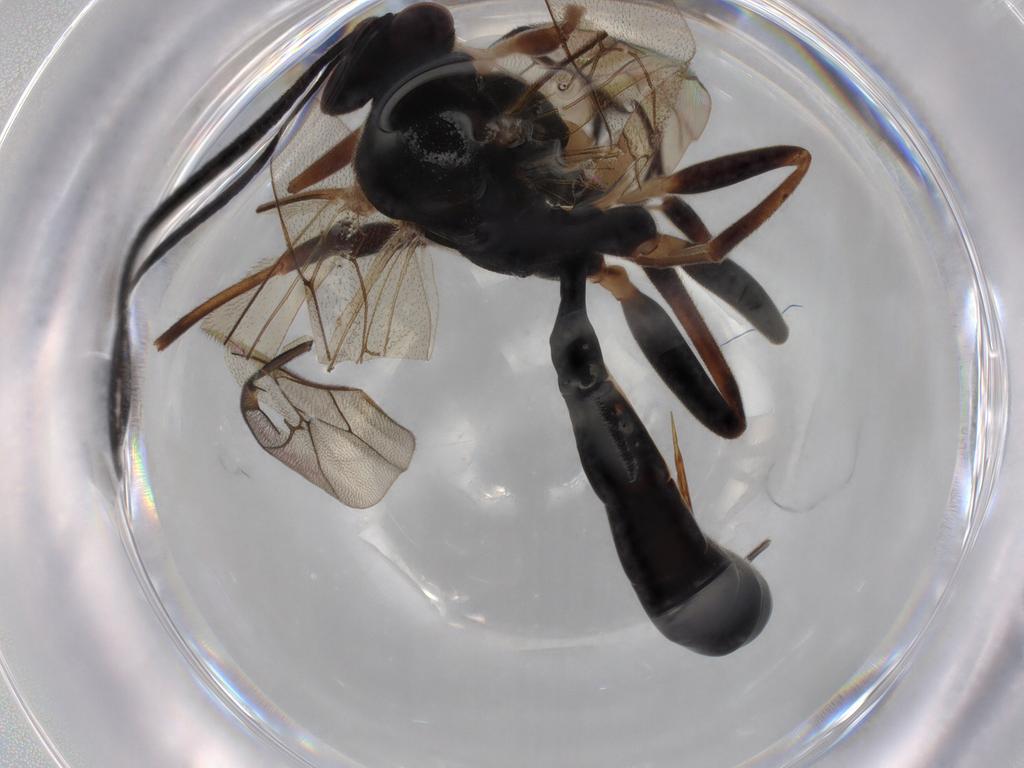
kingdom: Animalia
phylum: Arthropoda
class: Insecta
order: Hymenoptera
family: Ichneumonidae
